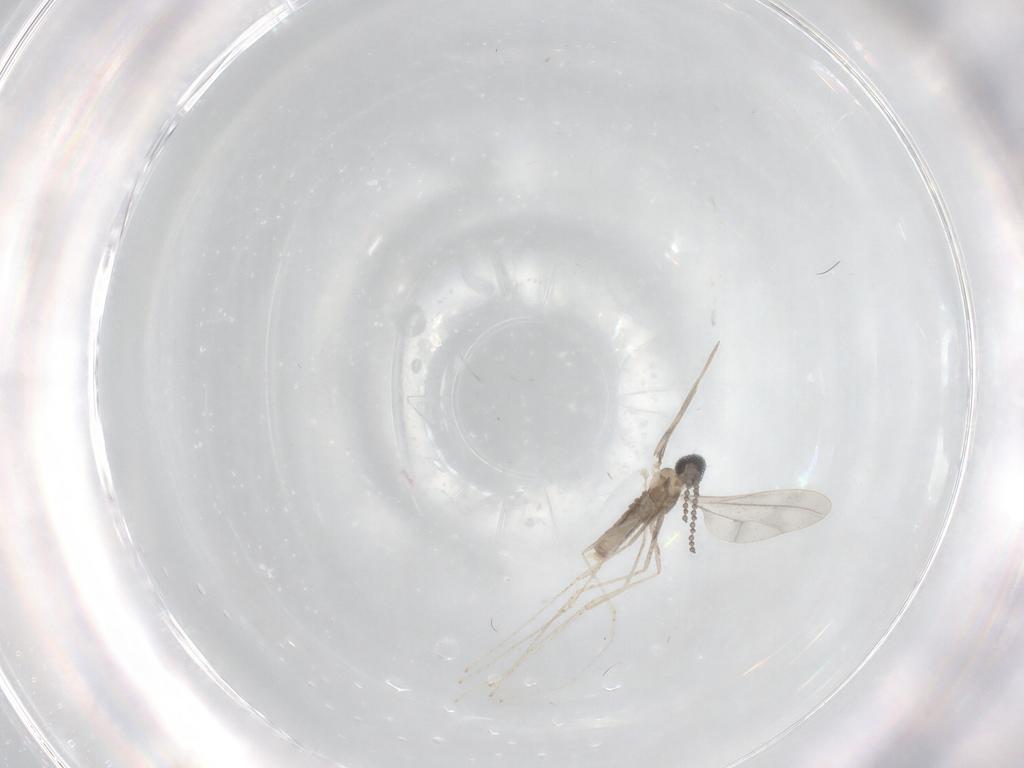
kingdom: Animalia
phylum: Arthropoda
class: Insecta
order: Diptera
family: Cecidomyiidae
